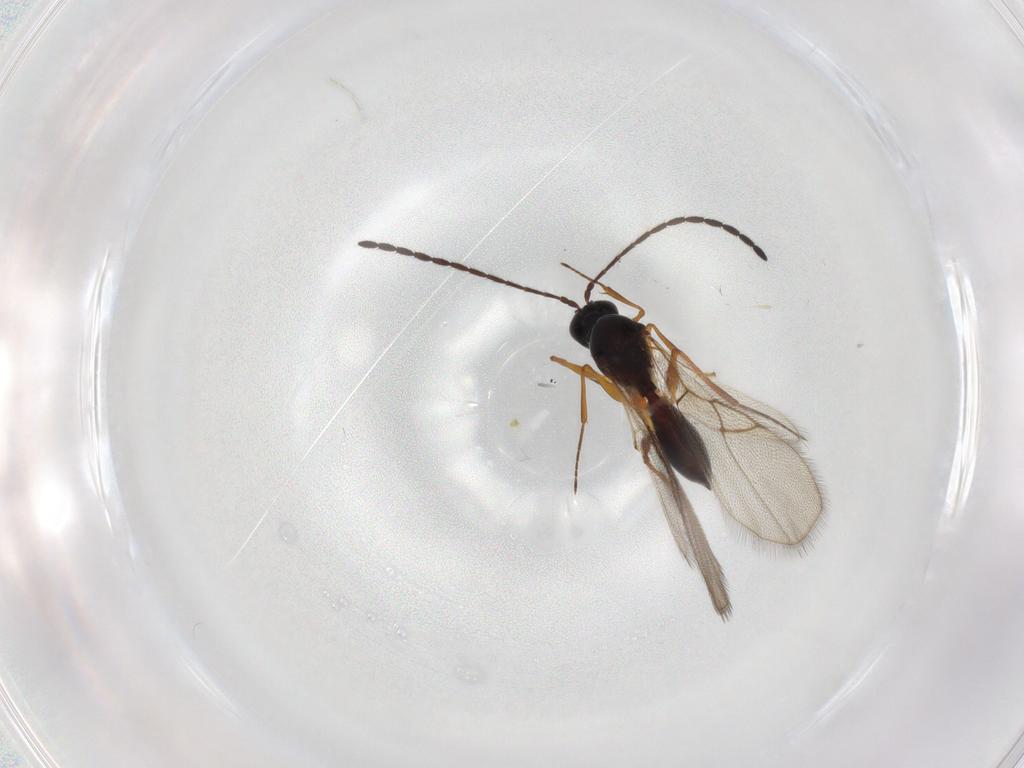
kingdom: Animalia
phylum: Arthropoda
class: Insecta
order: Hymenoptera
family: Figitidae
